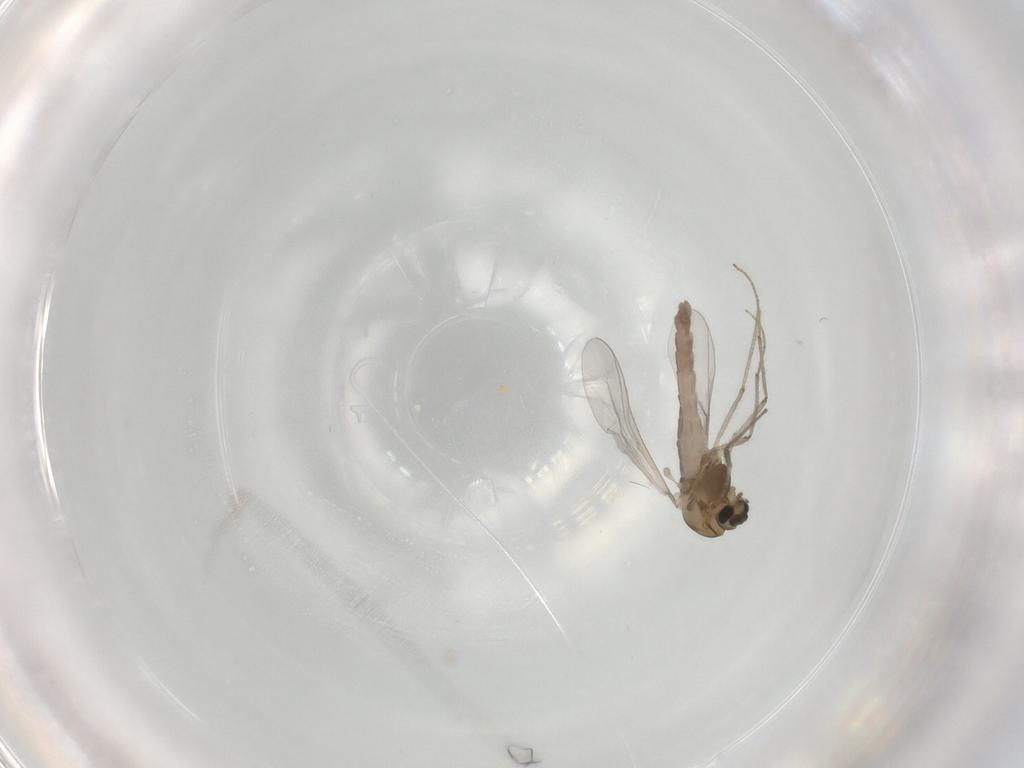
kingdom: Animalia
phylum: Arthropoda
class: Insecta
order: Diptera
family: Chironomidae
